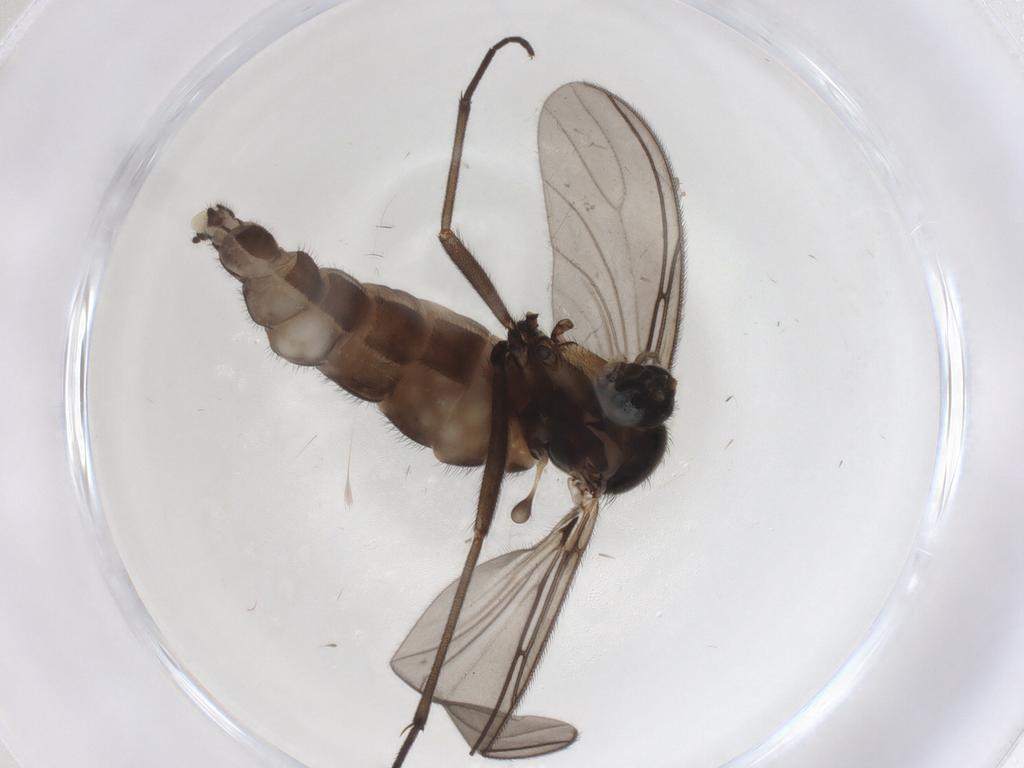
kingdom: Animalia
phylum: Arthropoda
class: Insecta
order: Diptera
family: Sciaridae
